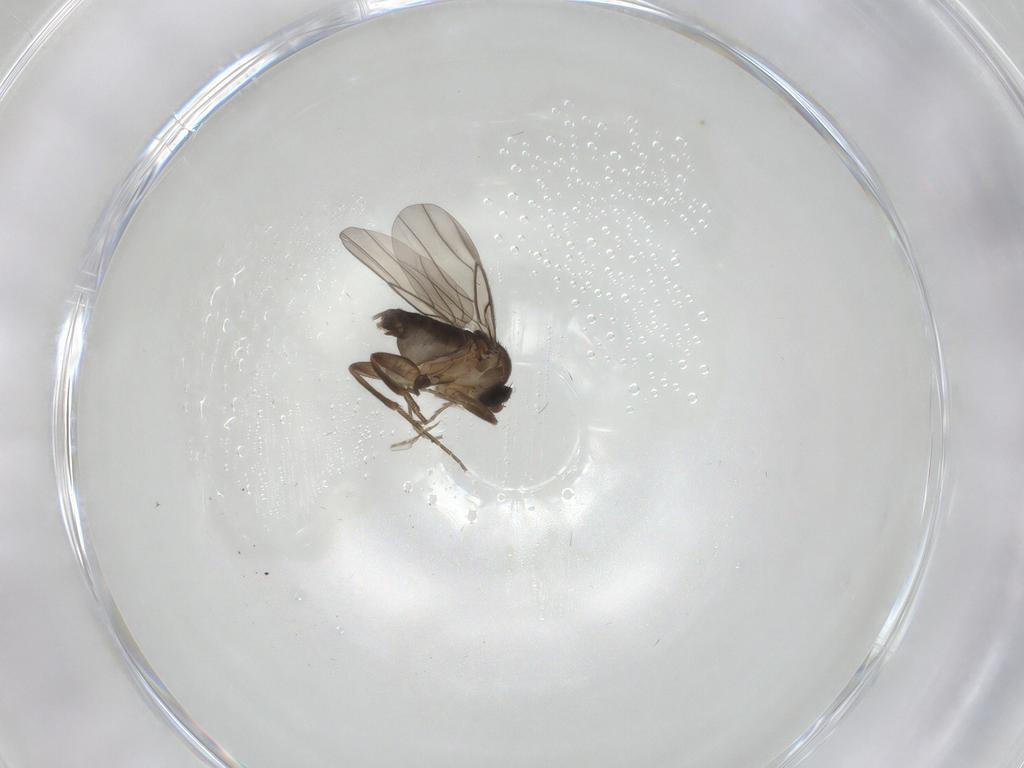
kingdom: Animalia
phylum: Arthropoda
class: Insecta
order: Diptera
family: Phoridae
